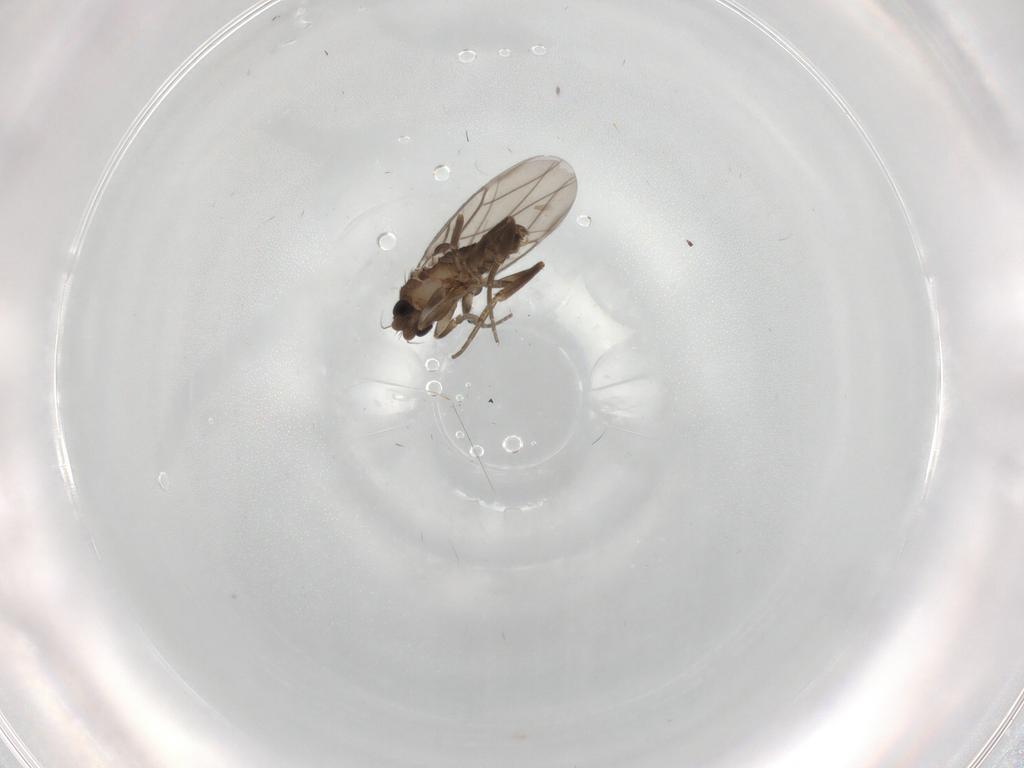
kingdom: Animalia
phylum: Arthropoda
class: Insecta
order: Diptera
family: Phoridae
